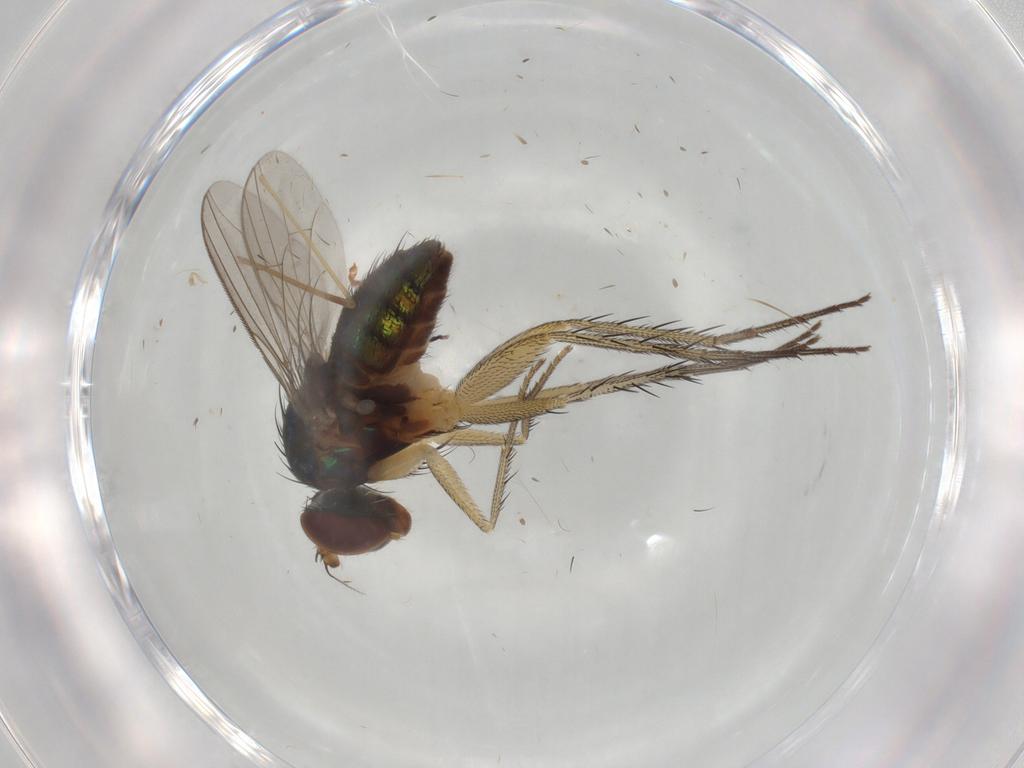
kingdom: Animalia
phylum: Arthropoda
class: Insecta
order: Diptera
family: Dolichopodidae
